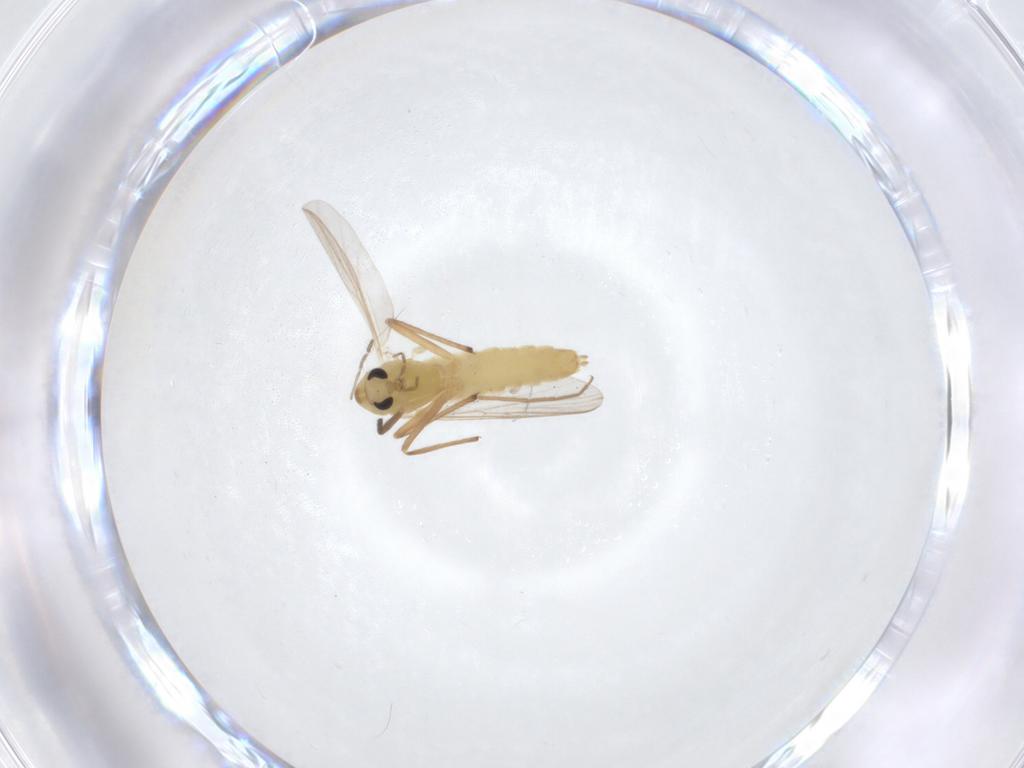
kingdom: Animalia
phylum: Arthropoda
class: Insecta
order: Diptera
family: Chironomidae
